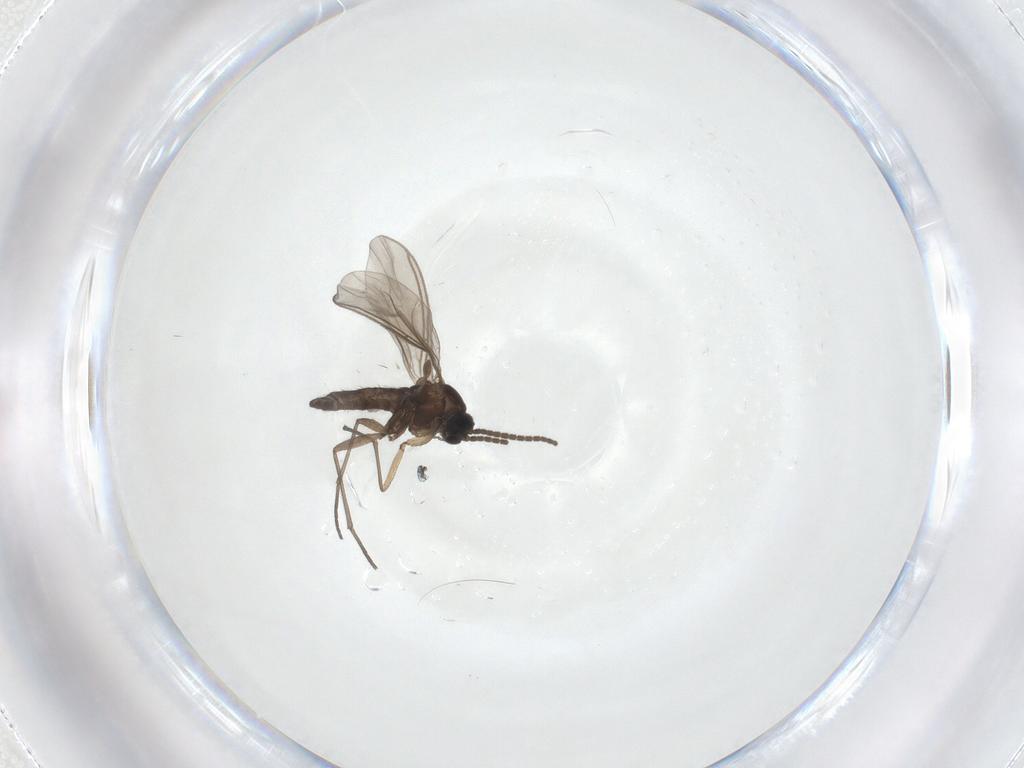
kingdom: Animalia
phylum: Arthropoda
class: Insecta
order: Diptera
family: Sciaridae
